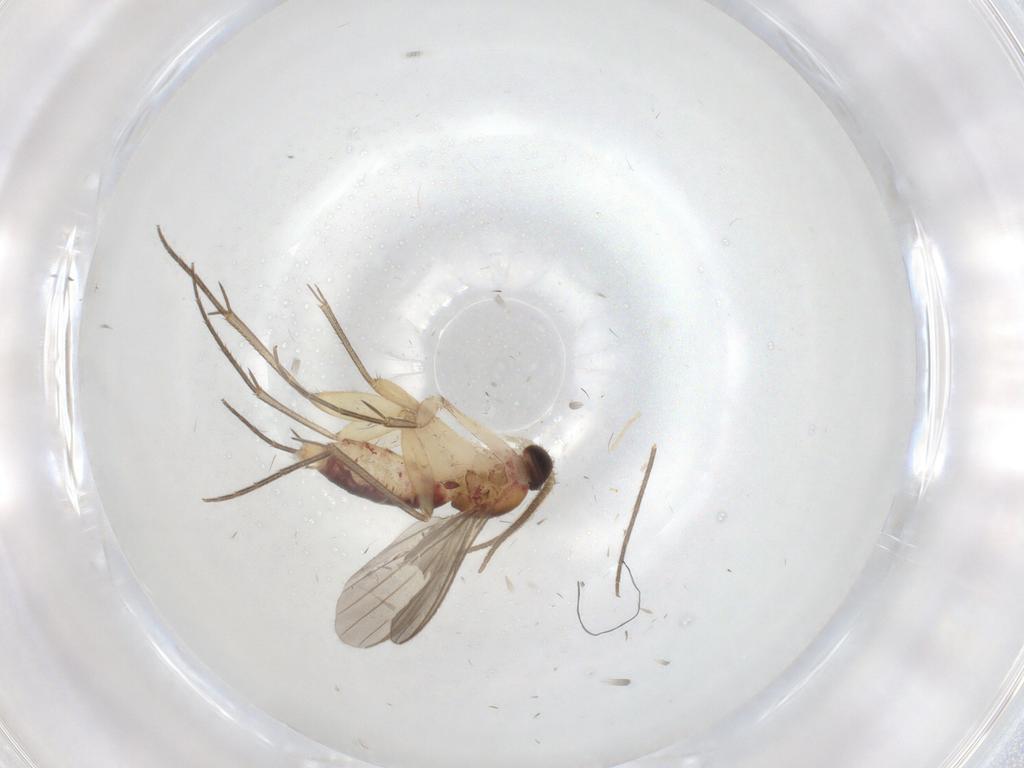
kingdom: Animalia
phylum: Arthropoda
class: Insecta
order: Diptera
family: Mycetophilidae
